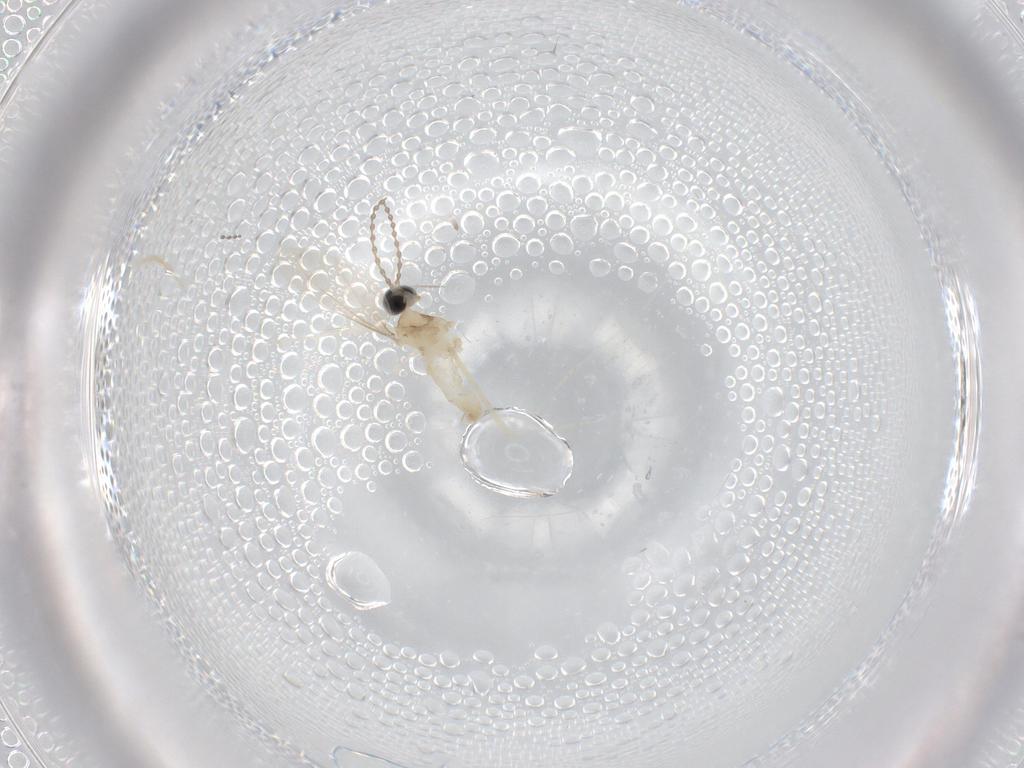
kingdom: Animalia
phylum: Arthropoda
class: Insecta
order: Diptera
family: Cecidomyiidae
